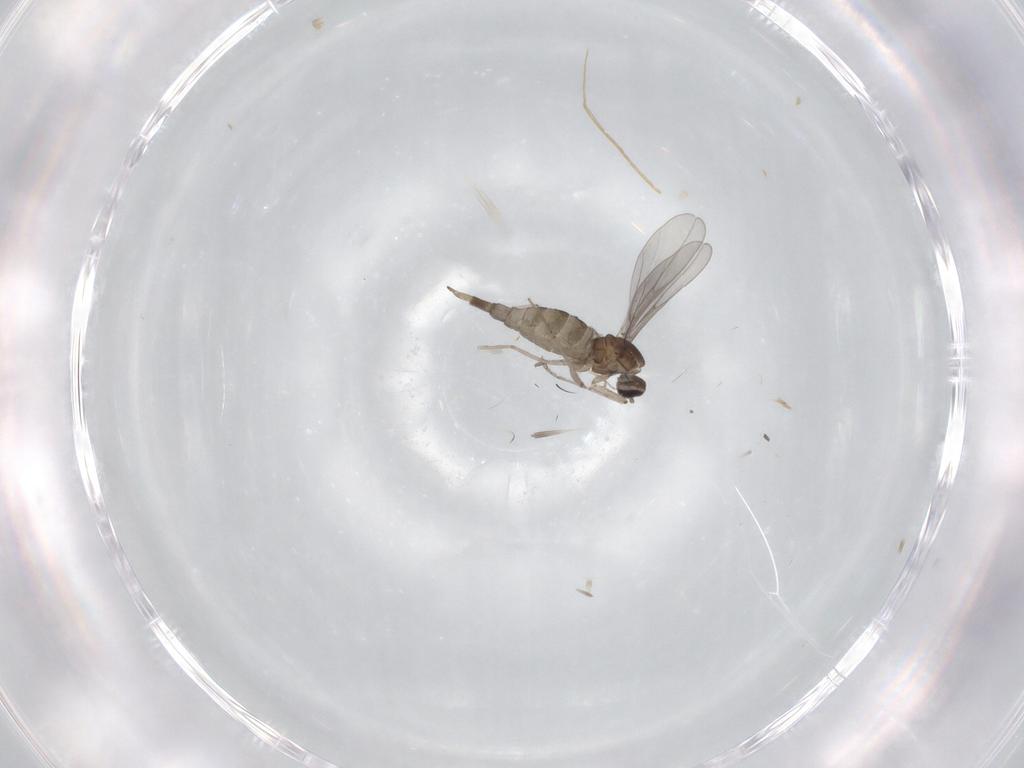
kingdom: Animalia
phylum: Arthropoda
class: Insecta
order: Diptera
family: Cecidomyiidae
